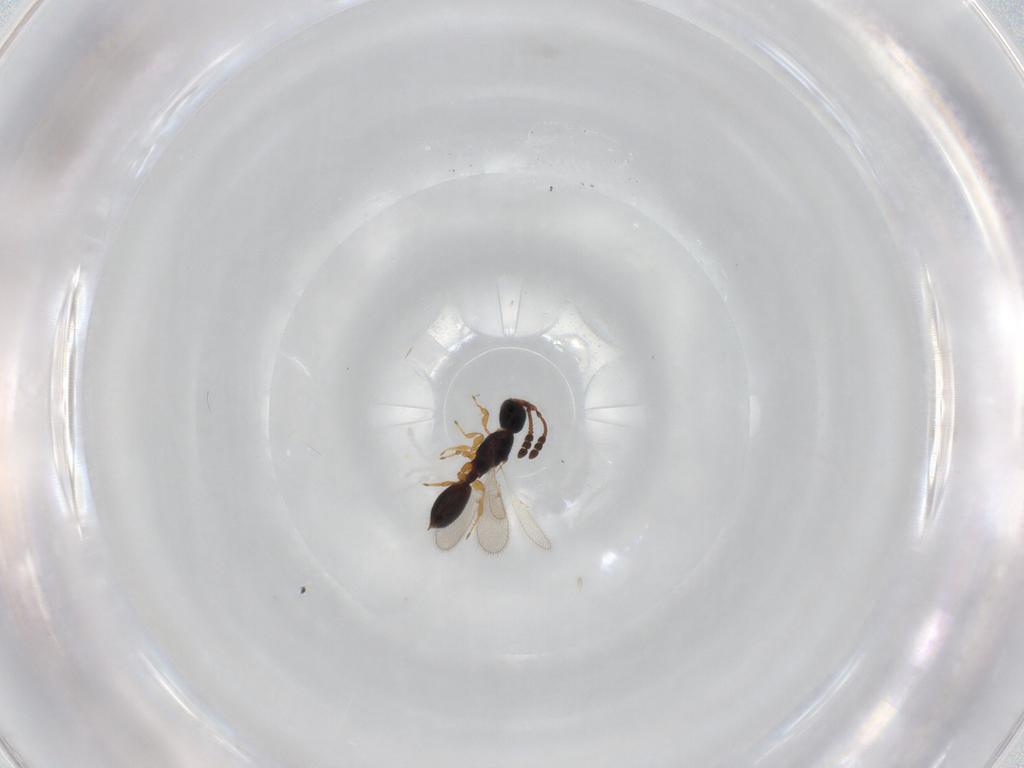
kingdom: Animalia
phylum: Arthropoda
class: Insecta
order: Hymenoptera
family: Diapriidae
